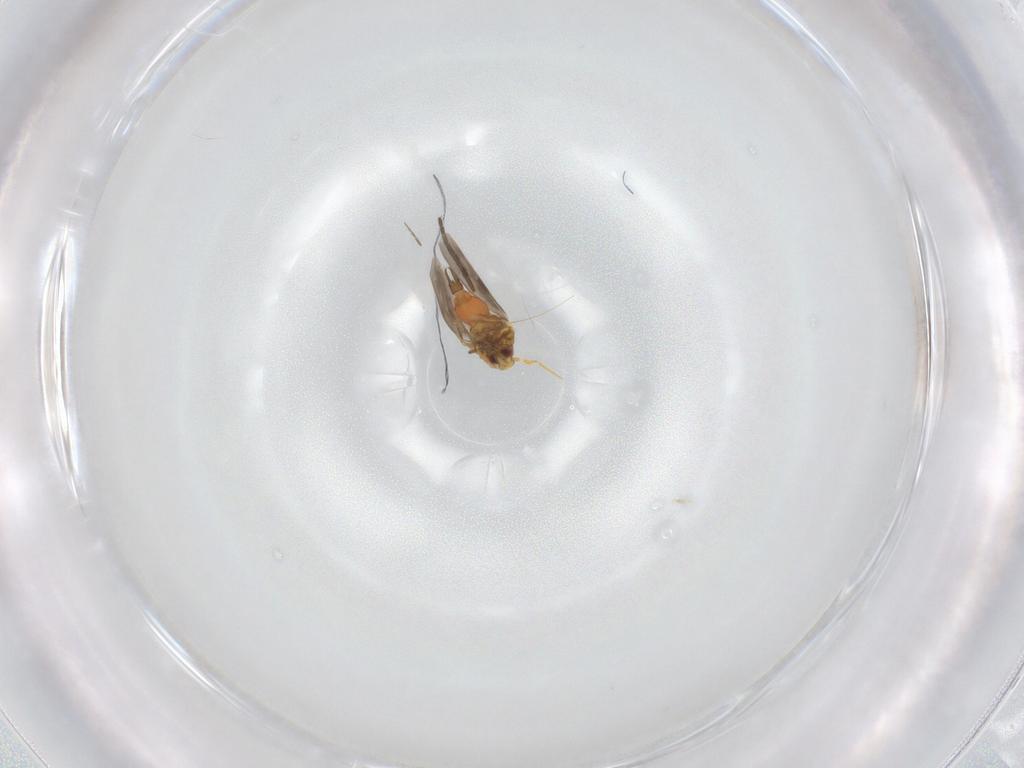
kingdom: Animalia
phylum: Arthropoda
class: Insecta
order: Hemiptera
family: Aleyrodidae
